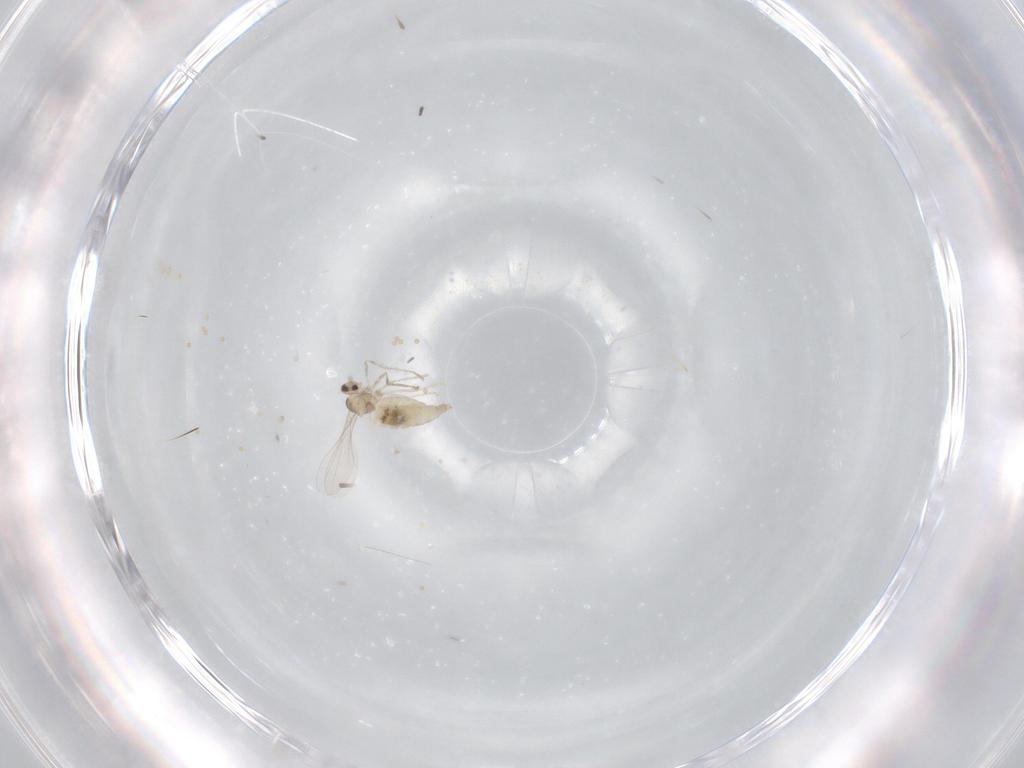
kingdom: Animalia
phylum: Arthropoda
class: Insecta
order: Diptera
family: Cecidomyiidae
